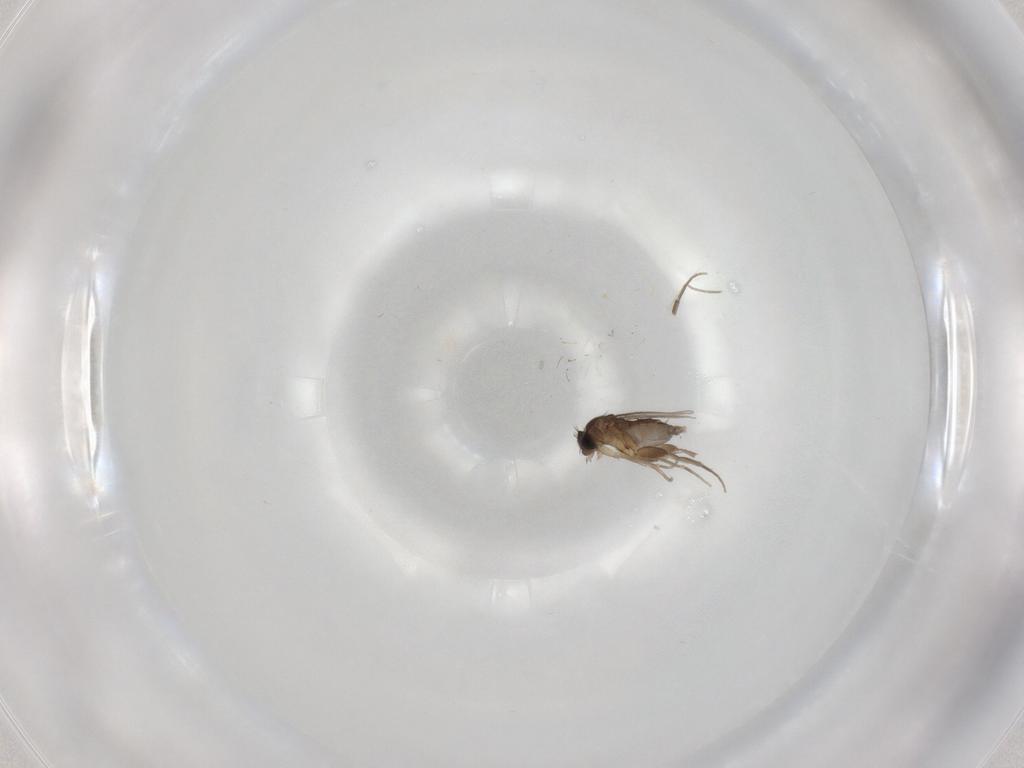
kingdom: Animalia
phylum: Arthropoda
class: Insecta
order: Diptera
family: Phoridae
